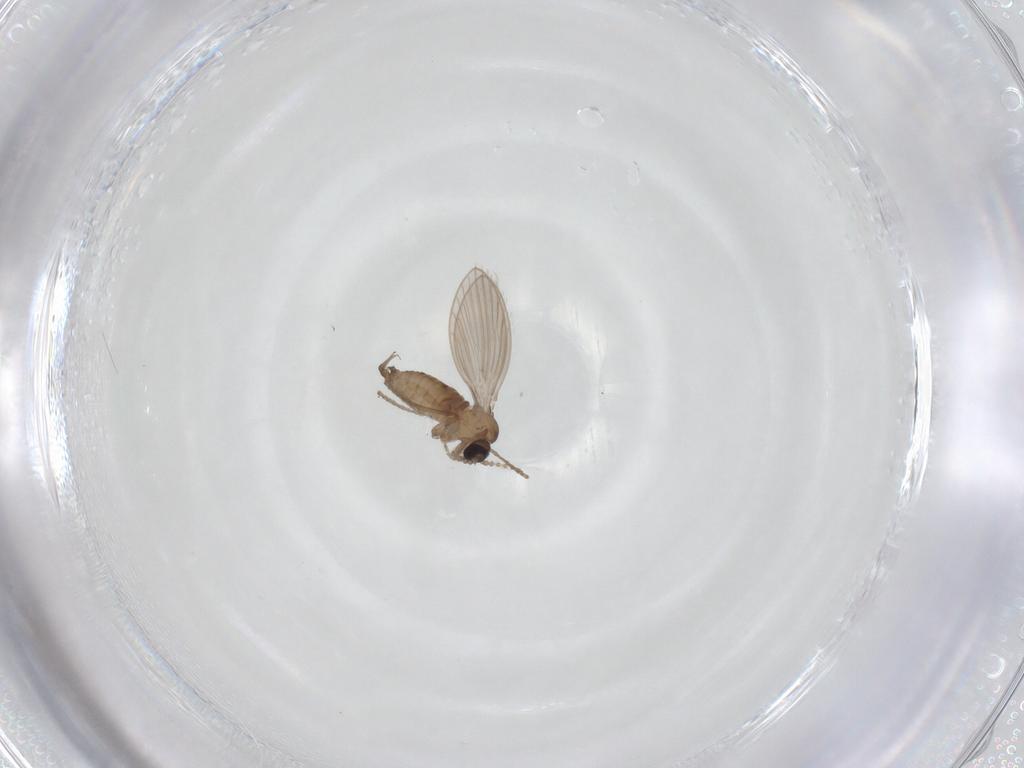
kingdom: Animalia
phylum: Arthropoda
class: Insecta
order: Diptera
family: Psychodidae
